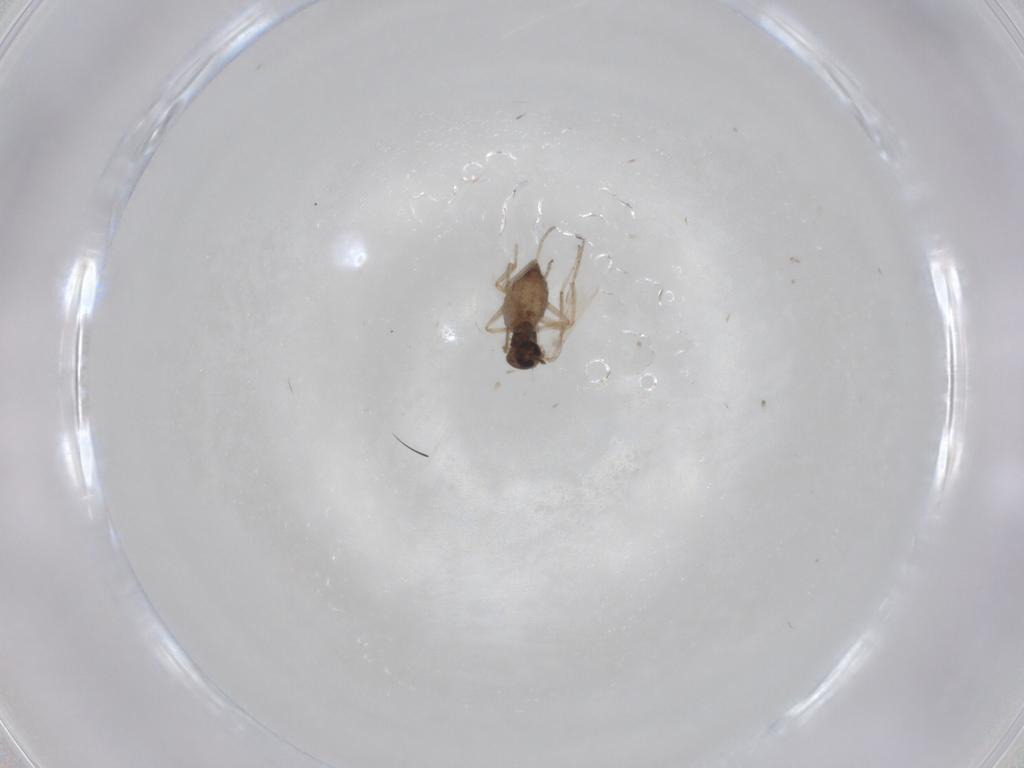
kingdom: Animalia
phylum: Arthropoda
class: Insecta
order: Diptera
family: Ceratopogonidae
